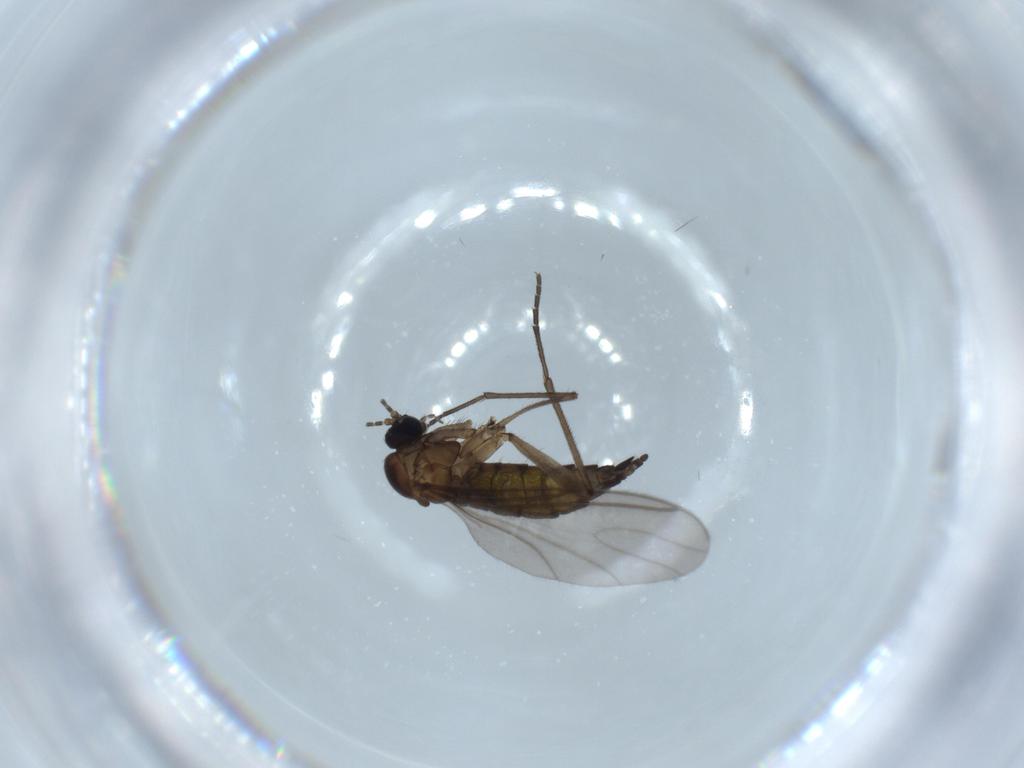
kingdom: Animalia
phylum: Arthropoda
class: Insecta
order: Diptera
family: Sciaridae
